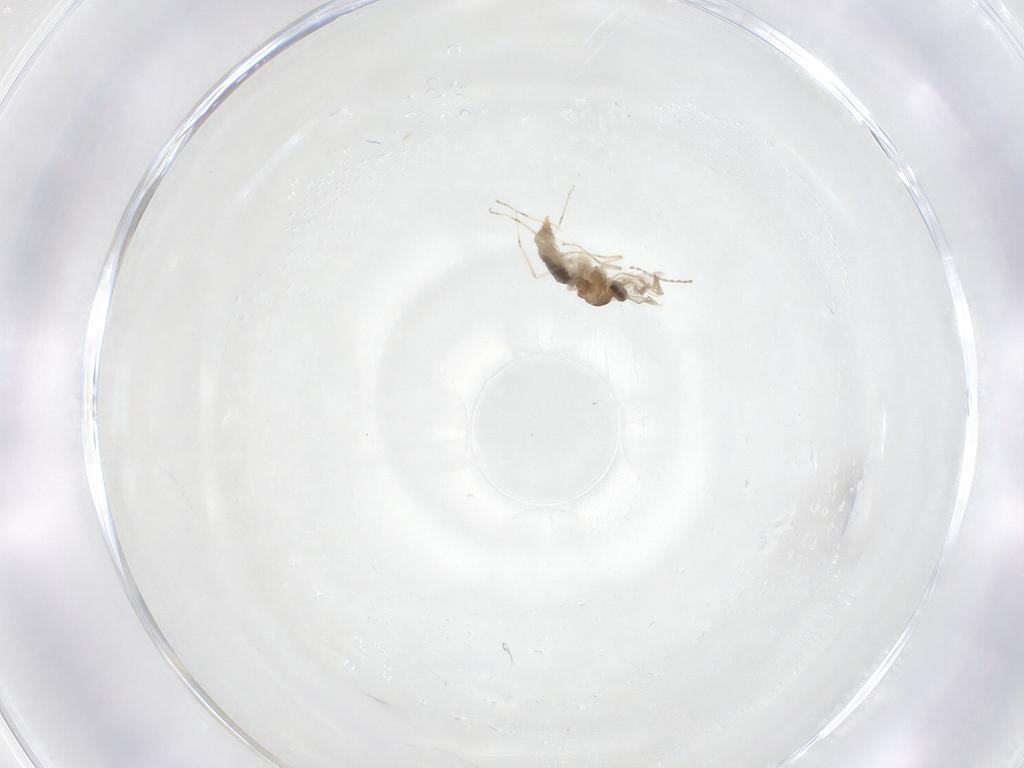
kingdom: Animalia
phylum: Arthropoda
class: Insecta
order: Diptera
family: Cecidomyiidae
